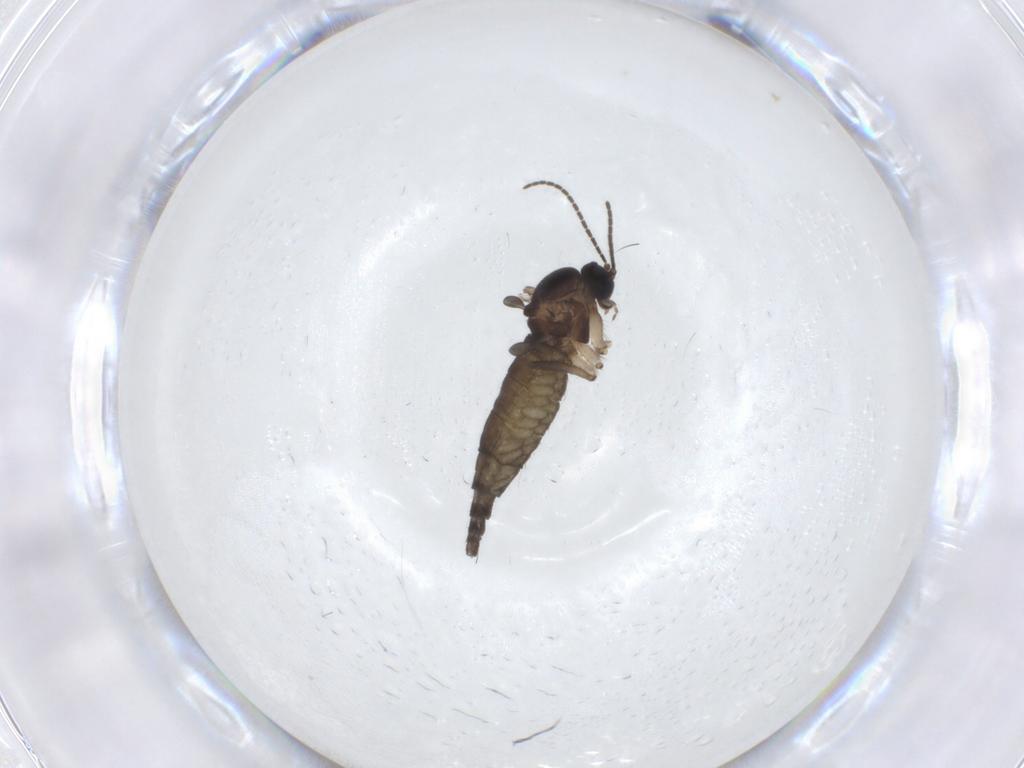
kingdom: Animalia
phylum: Arthropoda
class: Insecta
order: Diptera
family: Sciaridae
